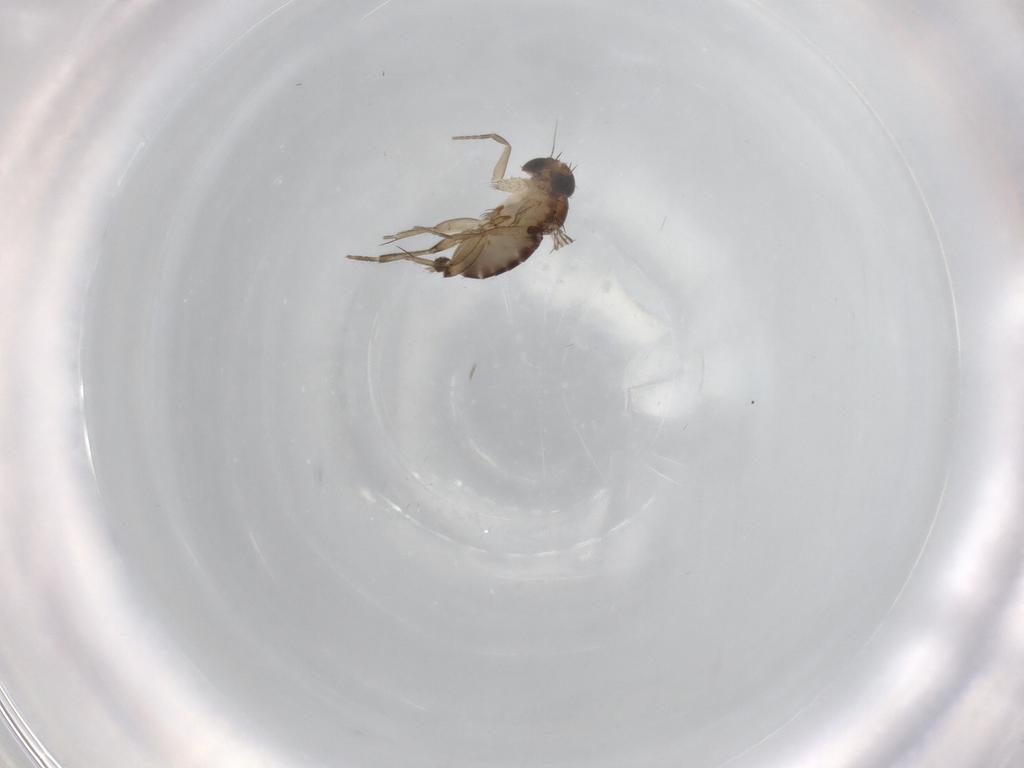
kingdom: Animalia
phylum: Arthropoda
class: Insecta
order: Diptera
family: Phoridae
